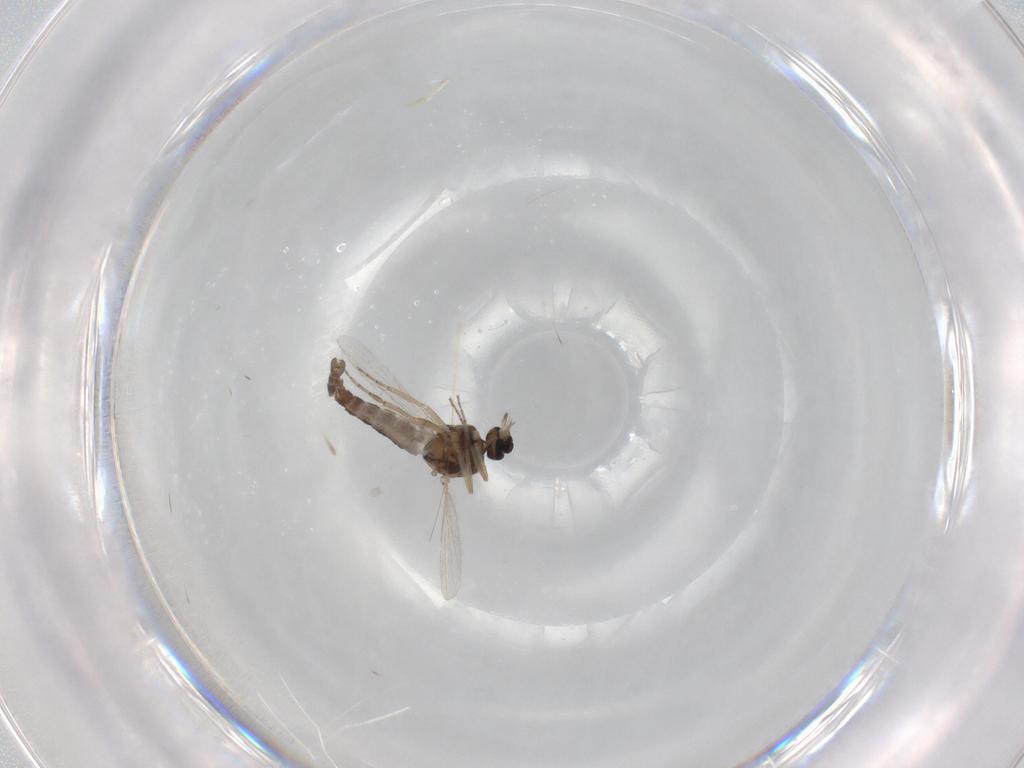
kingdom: Animalia
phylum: Arthropoda
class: Insecta
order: Diptera
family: Ceratopogonidae
